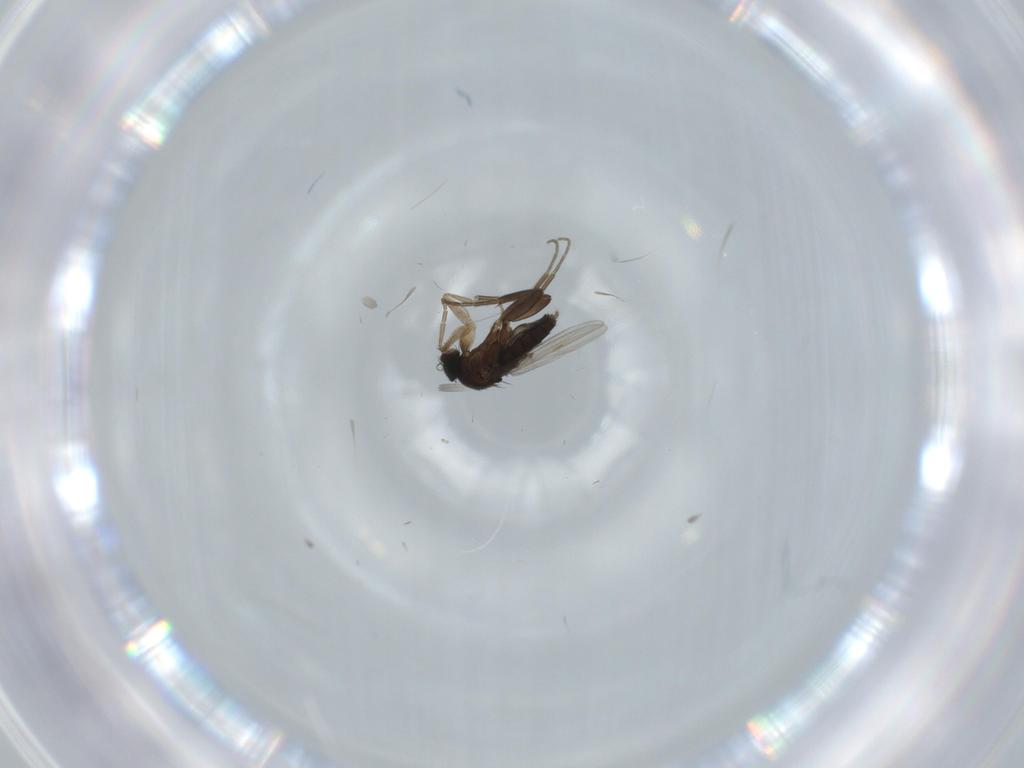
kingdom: Animalia
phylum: Arthropoda
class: Insecta
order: Diptera
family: Phoridae
